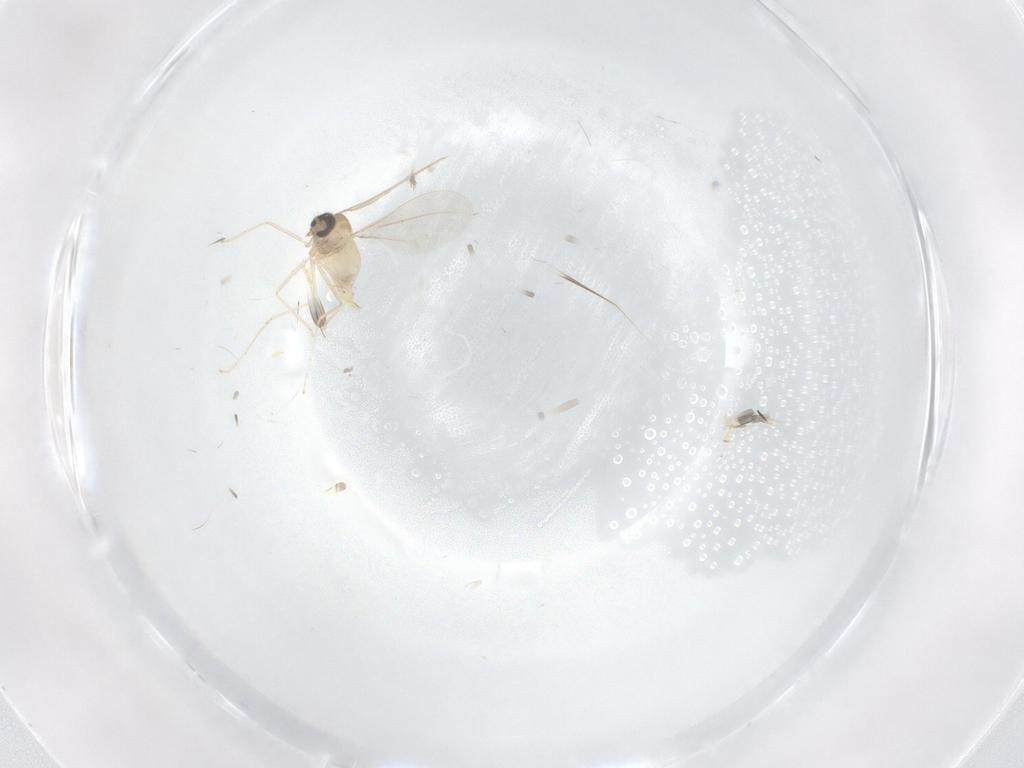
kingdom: Animalia
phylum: Arthropoda
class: Insecta
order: Diptera
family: Cecidomyiidae
